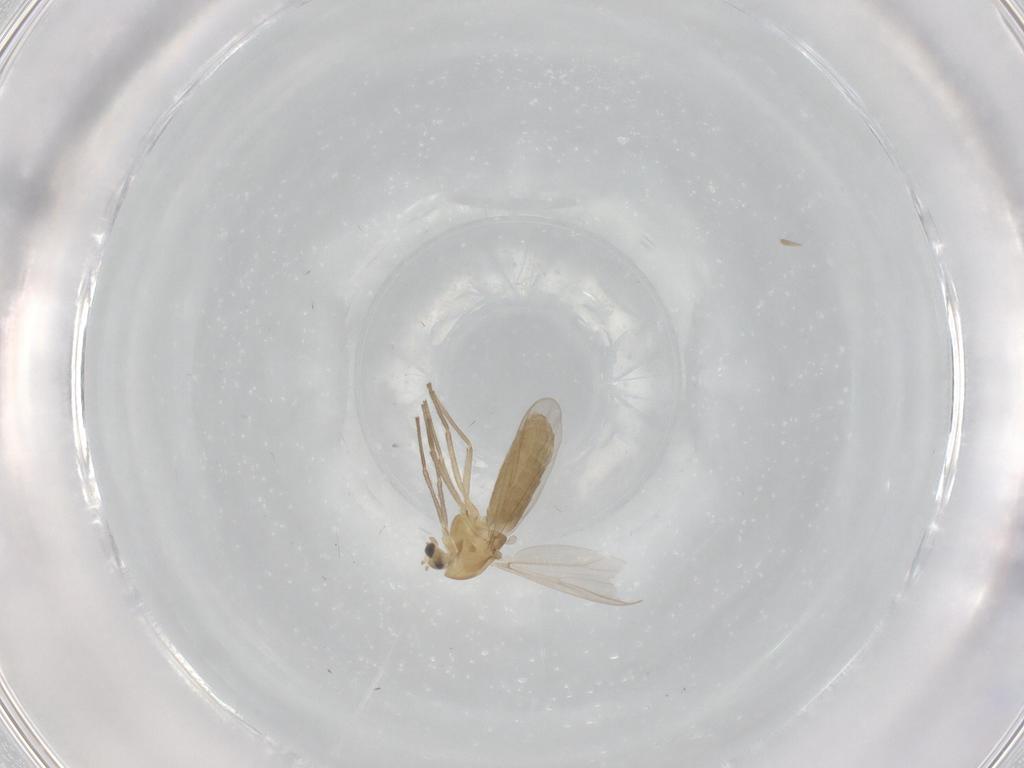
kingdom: Animalia
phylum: Arthropoda
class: Insecta
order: Diptera
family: Chironomidae
